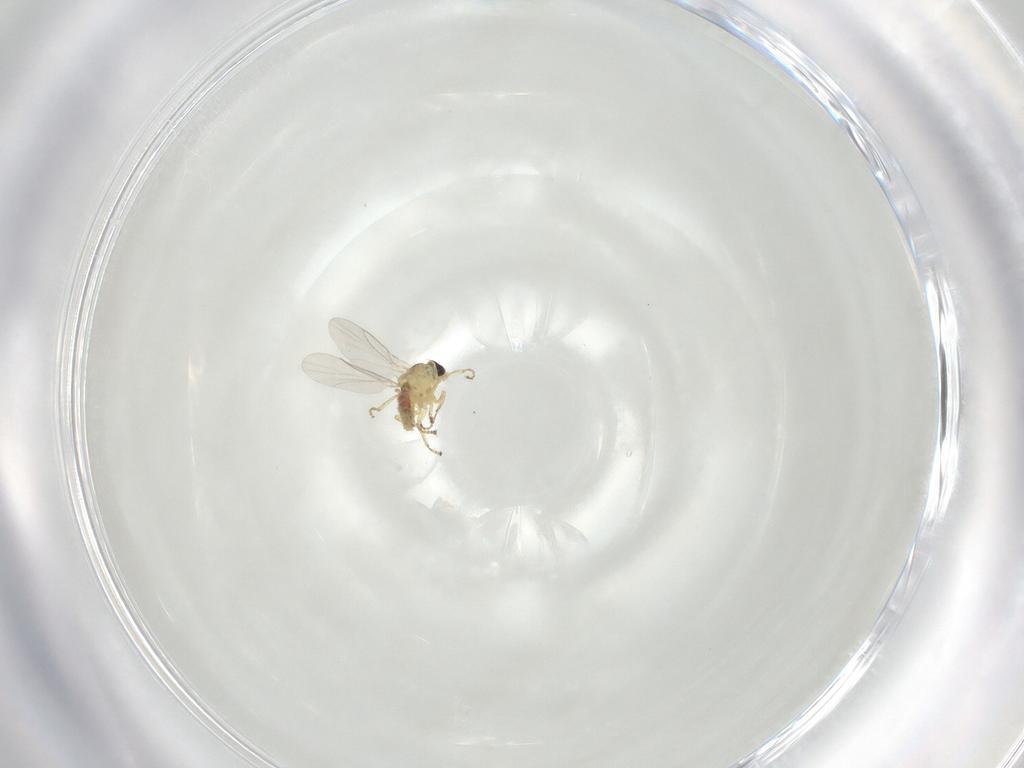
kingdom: Animalia
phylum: Arthropoda
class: Insecta
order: Diptera
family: Agromyzidae
